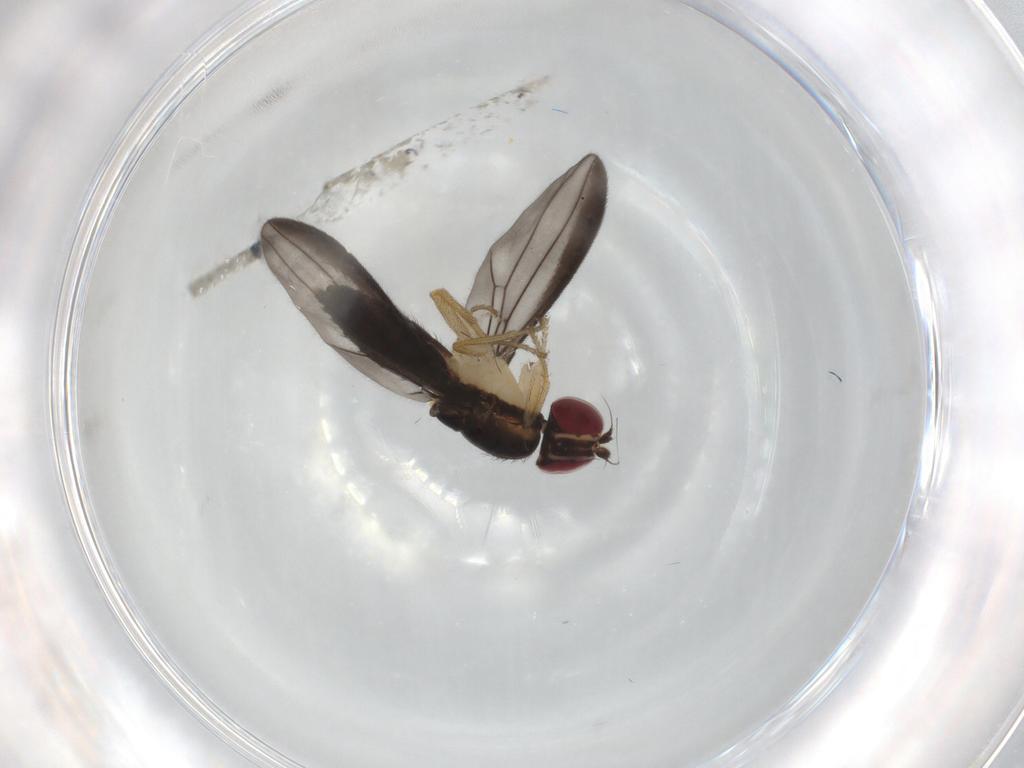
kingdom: Animalia
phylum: Arthropoda
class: Insecta
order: Diptera
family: Anthomyzidae
